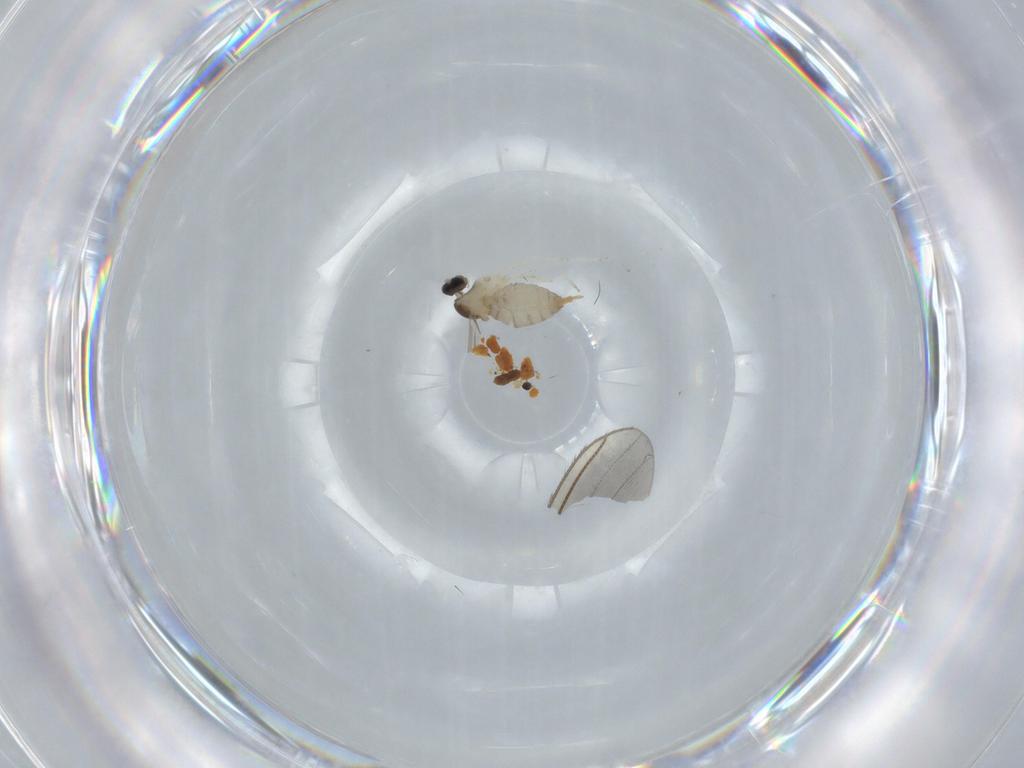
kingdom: Animalia
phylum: Arthropoda
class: Insecta
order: Diptera
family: Cecidomyiidae
